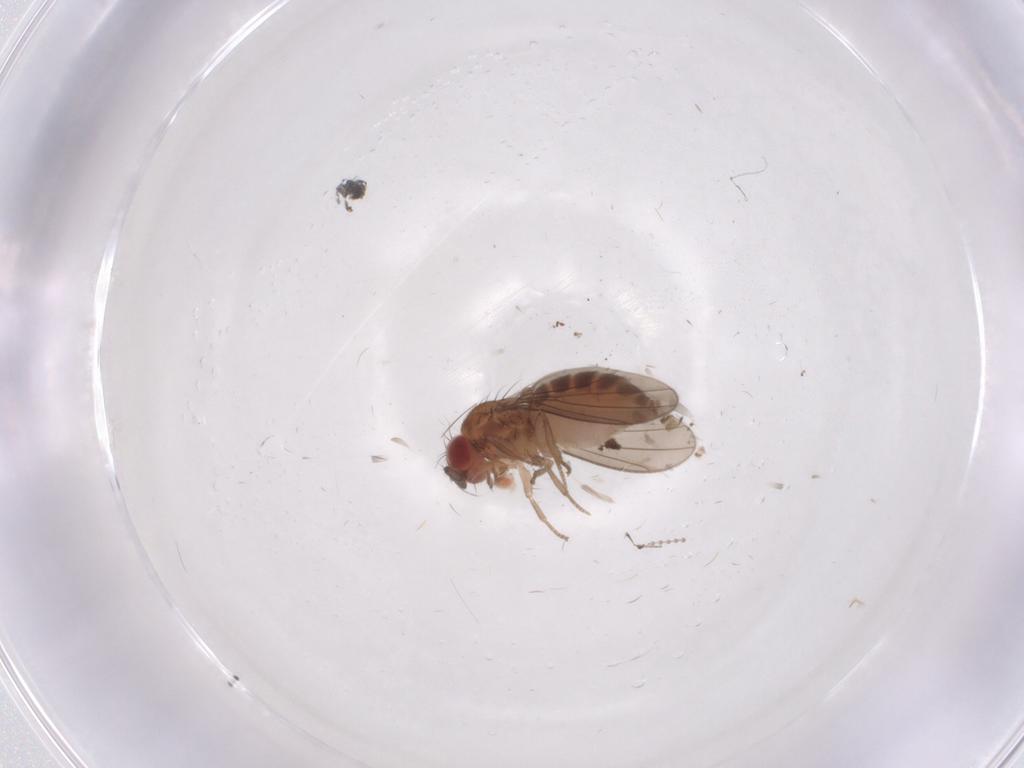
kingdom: Animalia
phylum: Arthropoda
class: Insecta
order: Diptera
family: Drosophilidae
